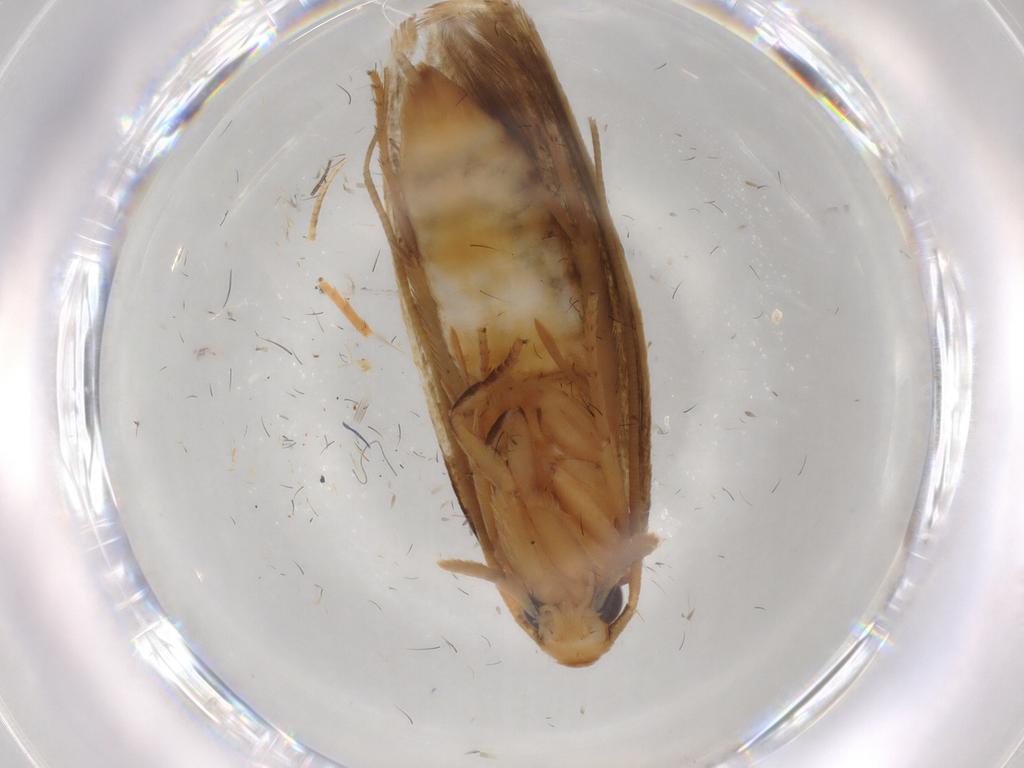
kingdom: Animalia
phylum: Arthropoda
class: Insecta
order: Lepidoptera
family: Tineidae
